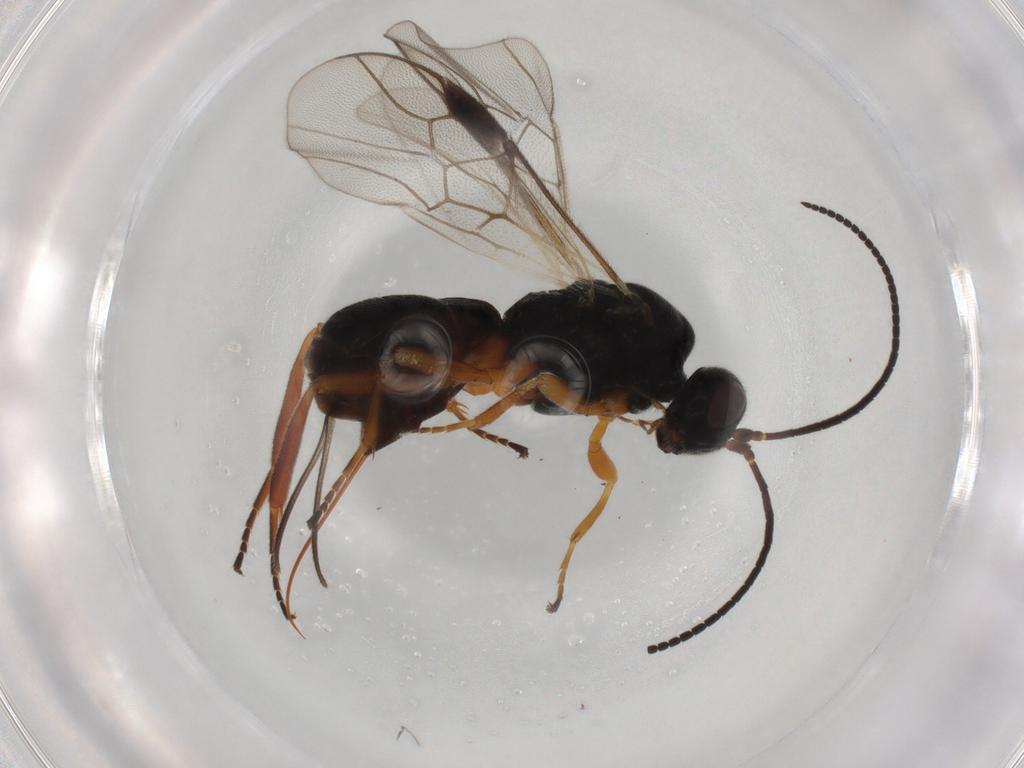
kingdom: Animalia
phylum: Arthropoda
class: Insecta
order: Hymenoptera
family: Braconidae
